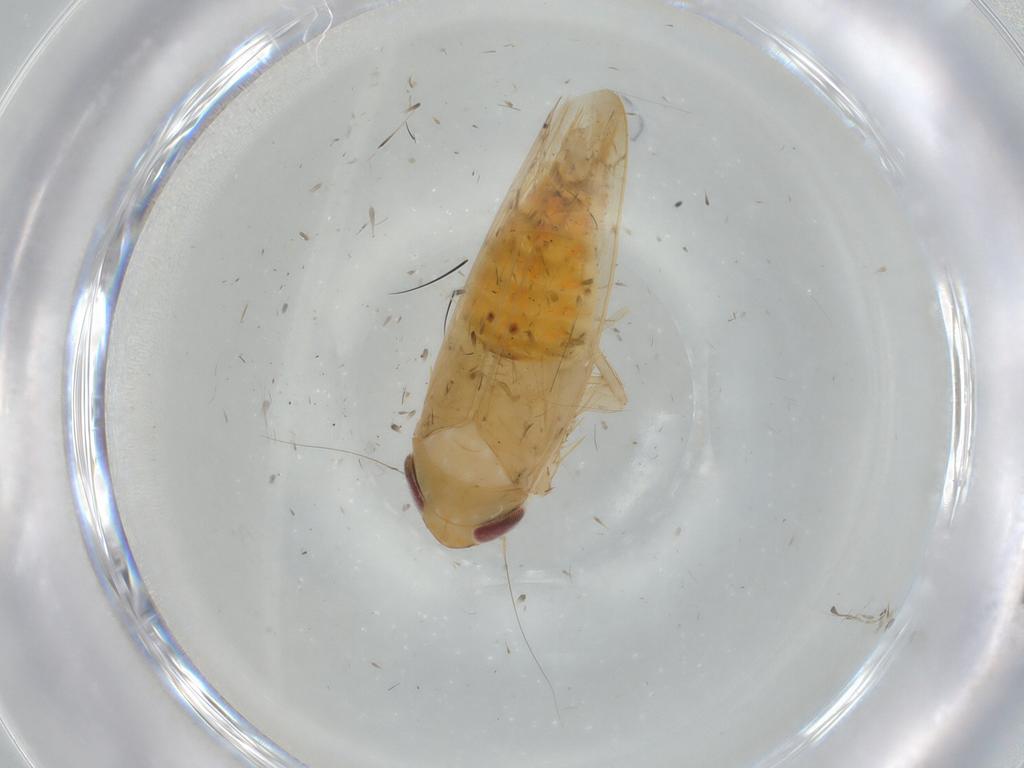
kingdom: Animalia
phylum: Arthropoda
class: Insecta
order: Hemiptera
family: Cicadellidae
